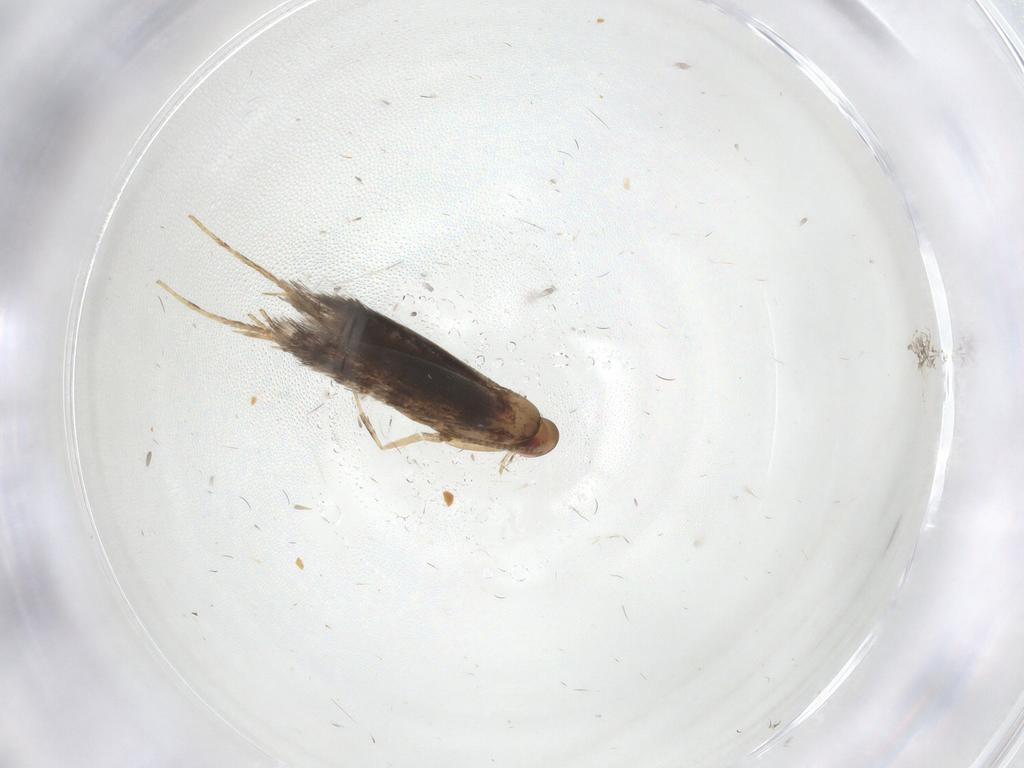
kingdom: Animalia
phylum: Arthropoda
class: Insecta
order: Lepidoptera
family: Gracillariidae
